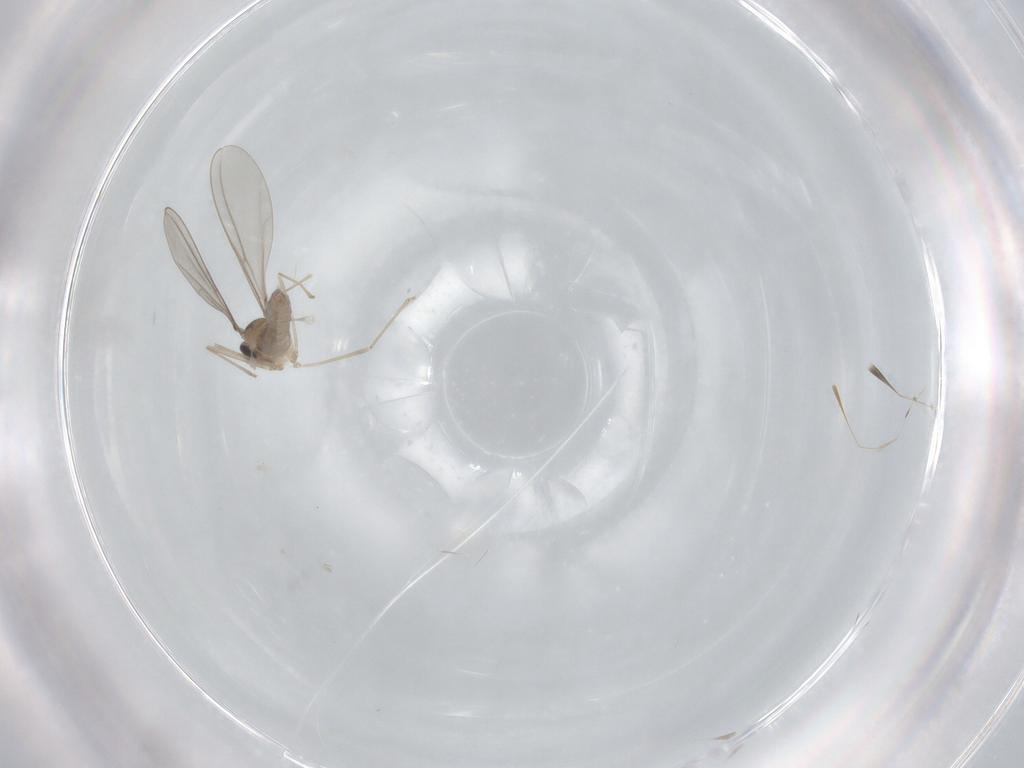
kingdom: Animalia
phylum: Arthropoda
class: Insecta
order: Diptera
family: Cecidomyiidae
